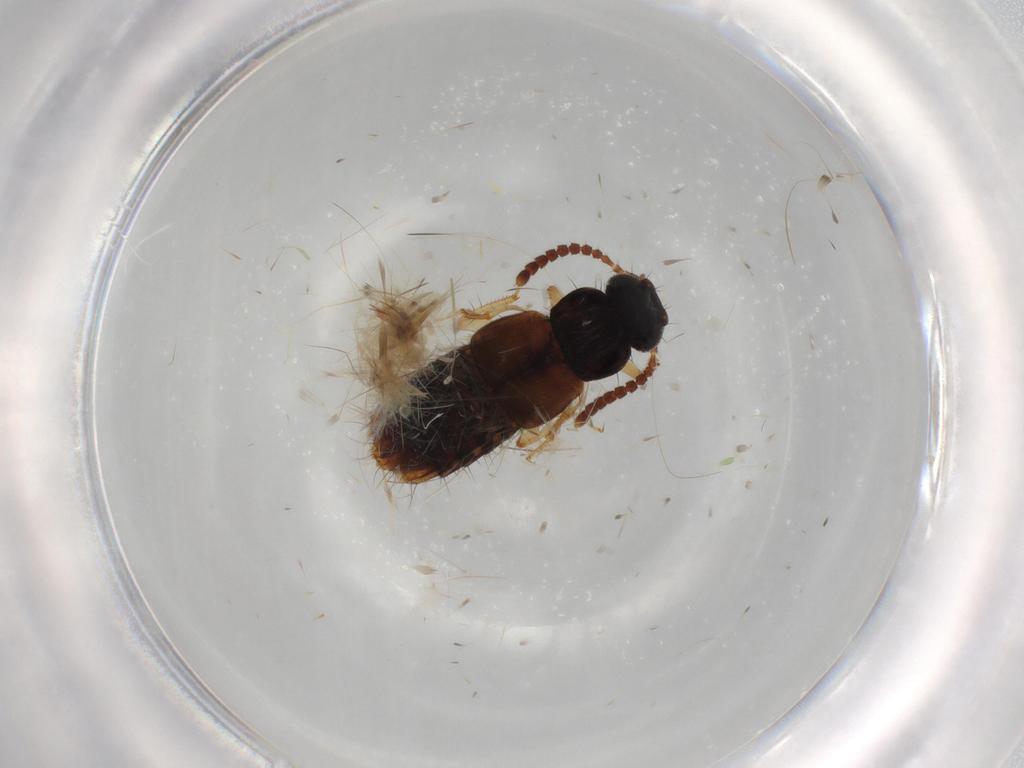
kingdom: Animalia
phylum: Arthropoda
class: Insecta
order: Coleoptera
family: Staphylinidae
